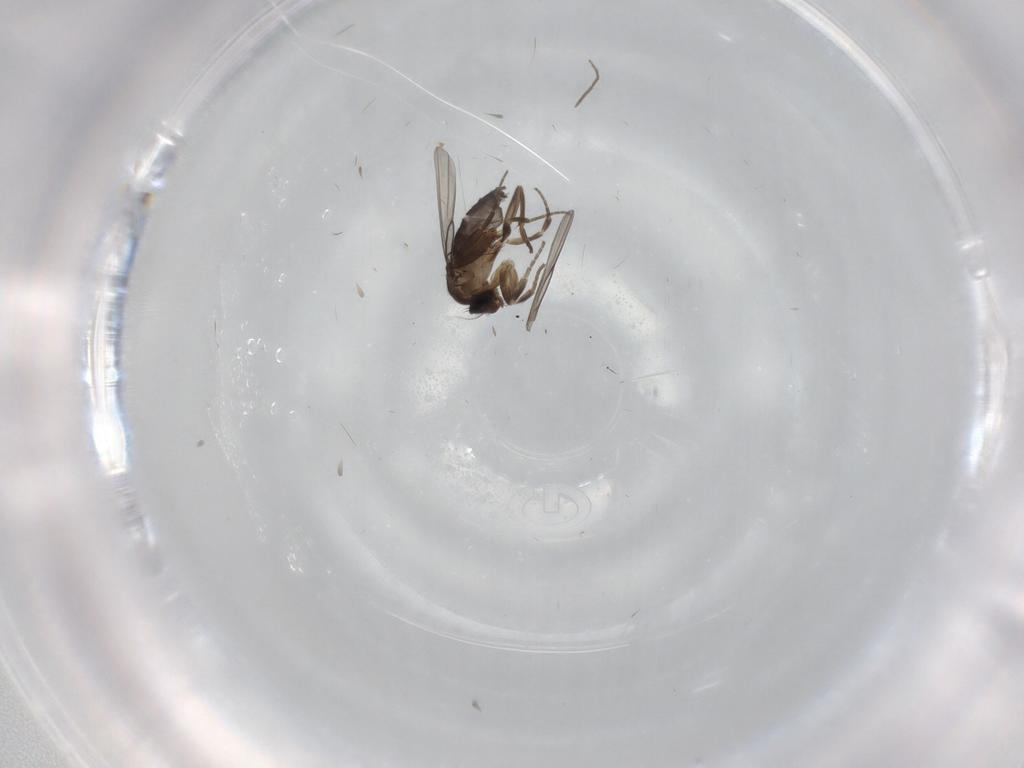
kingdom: Animalia
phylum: Arthropoda
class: Insecta
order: Diptera
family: Chironomidae
